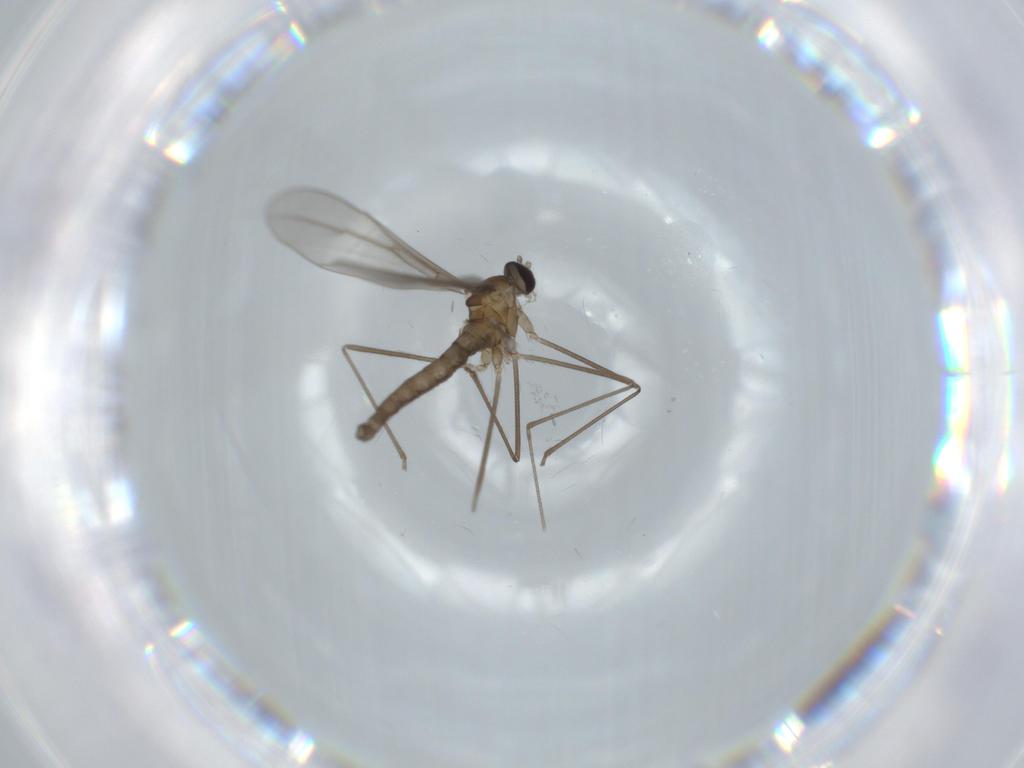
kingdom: Animalia
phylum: Arthropoda
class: Insecta
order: Diptera
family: Cecidomyiidae
